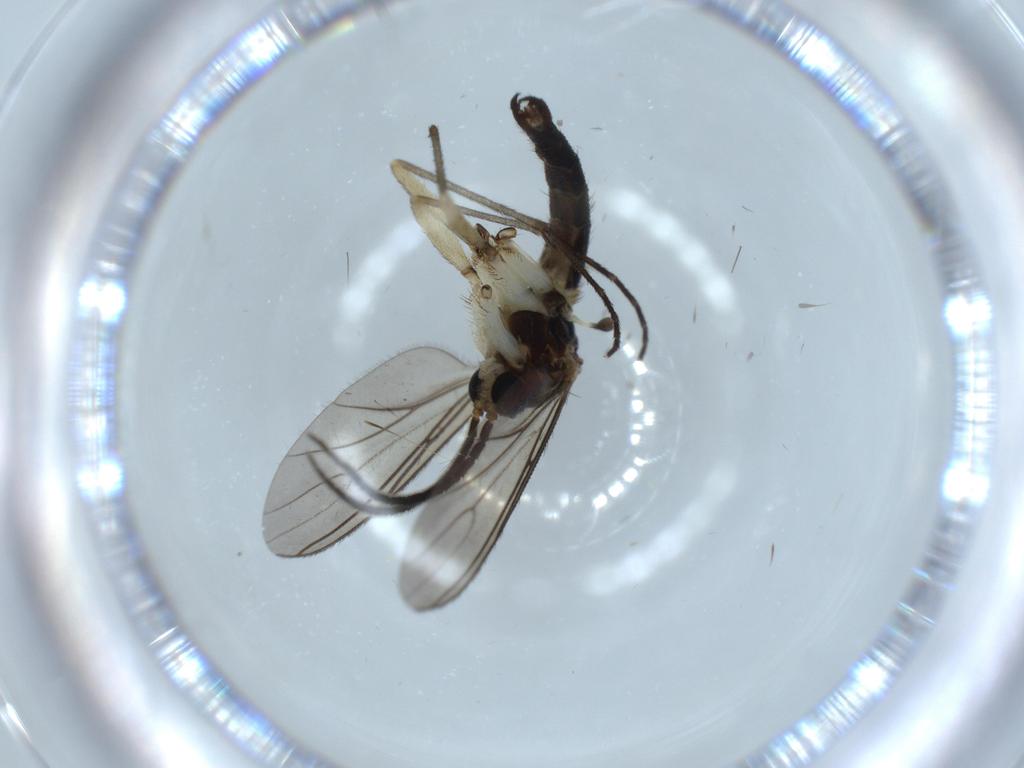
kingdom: Animalia
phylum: Arthropoda
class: Insecta
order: Diptera
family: Sciaridae
